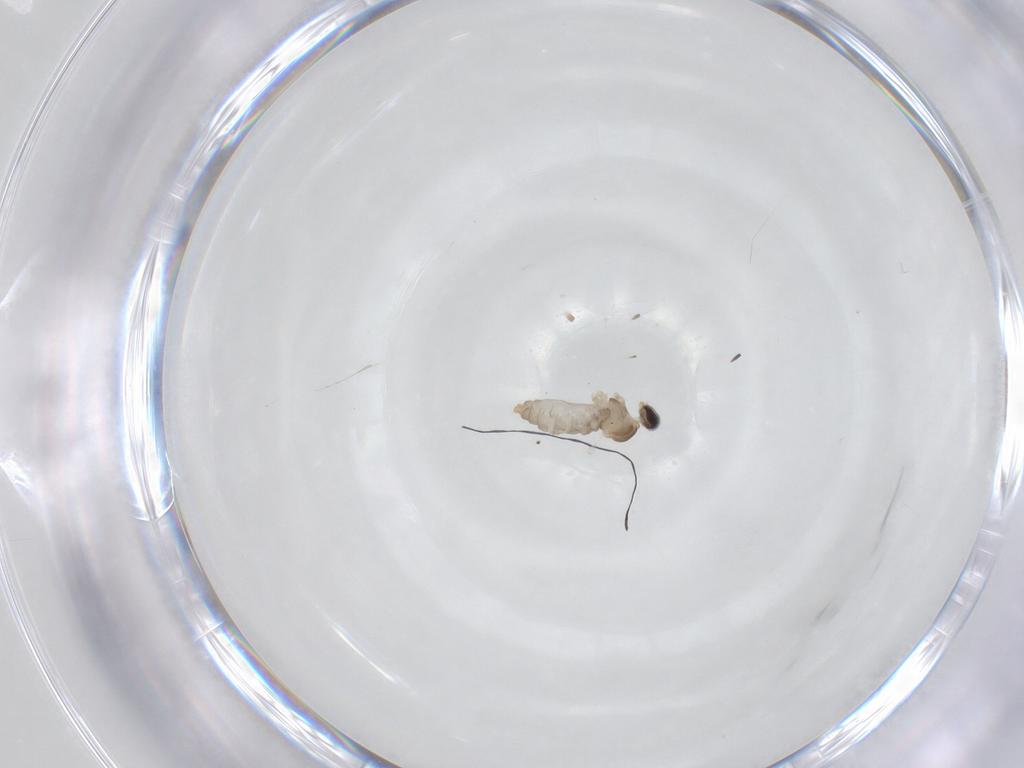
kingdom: Animalia
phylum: Arthropoda
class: Insecta
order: Diptera
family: Cecidomyiidae
